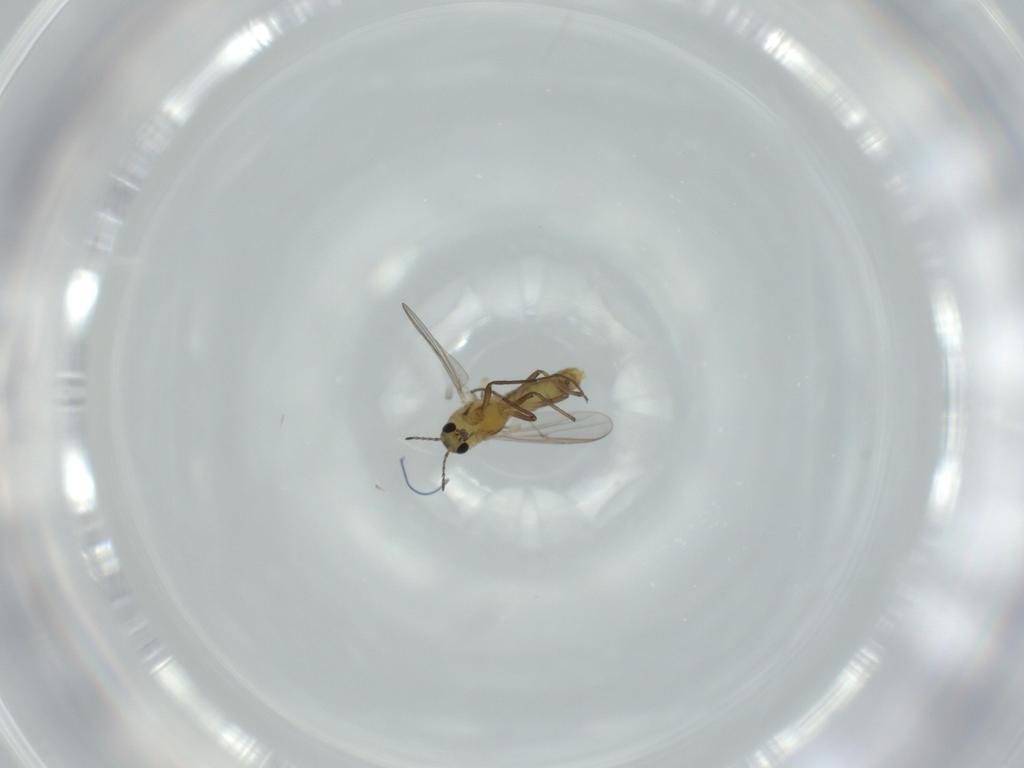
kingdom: Animalia
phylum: Arthropoda
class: Insecta
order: Diptera
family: Chironomidae
